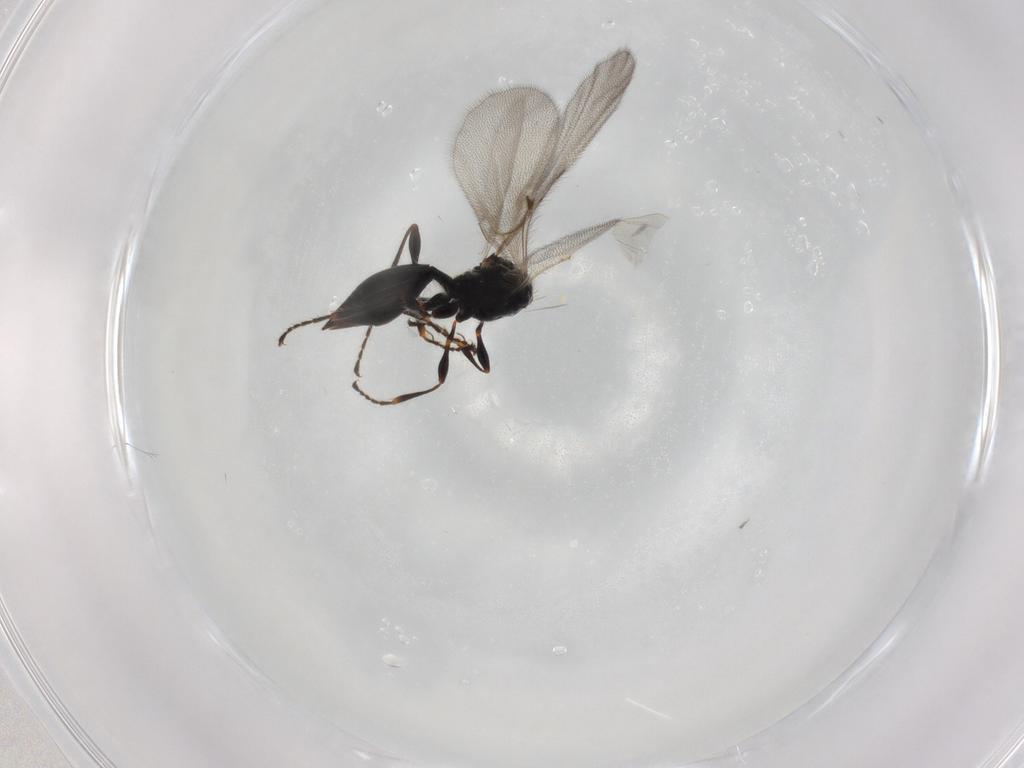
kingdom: Animalia
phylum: Arthropoda
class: Insecta
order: Hymenoptera
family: Diapriidae
